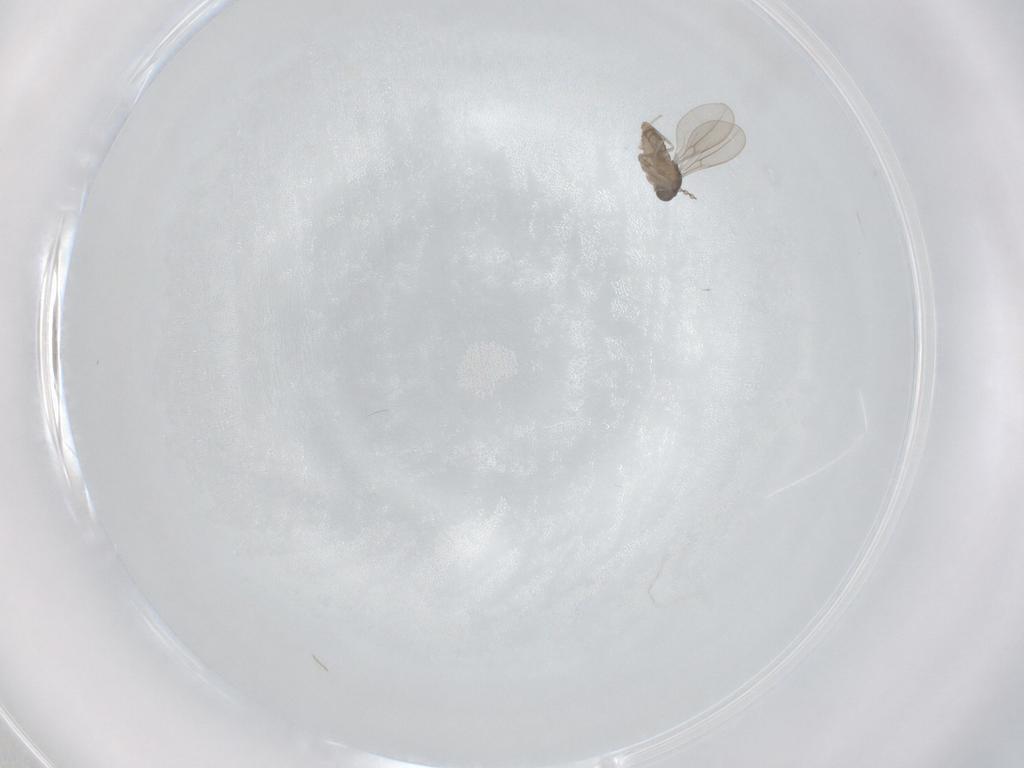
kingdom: Animalia
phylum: Arthropoda
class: Insecta
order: Diptera
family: Cecidomyiidae
